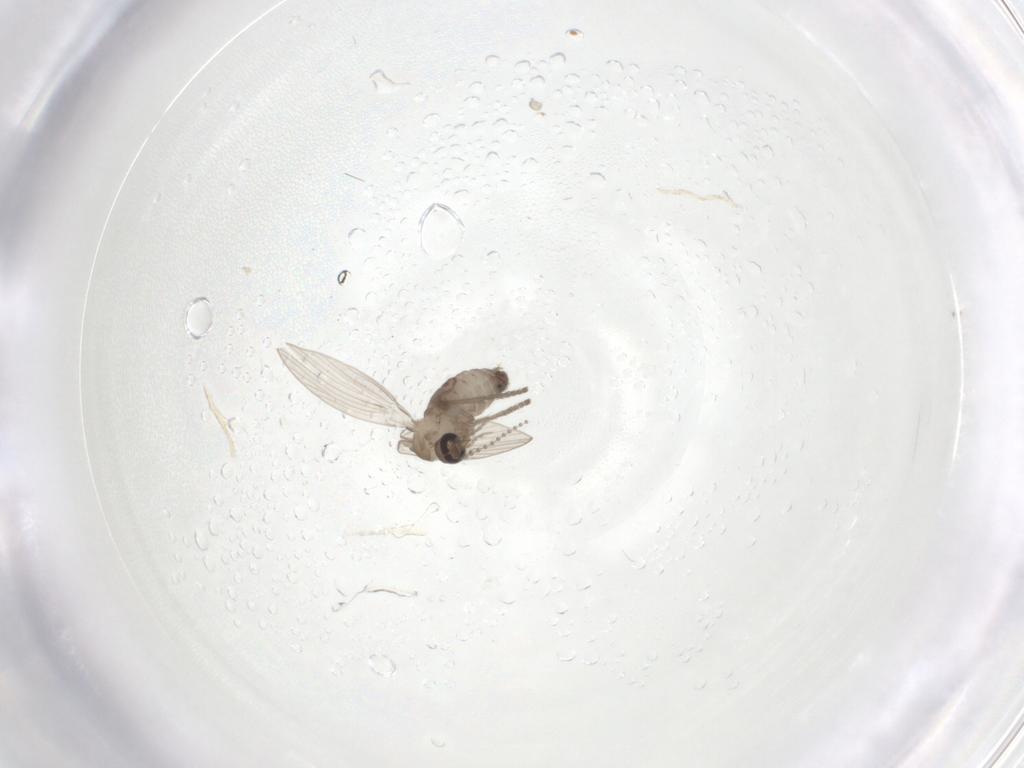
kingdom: Animalia
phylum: Arthropoda
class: Insecta
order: Diptera
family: Psychodidae
